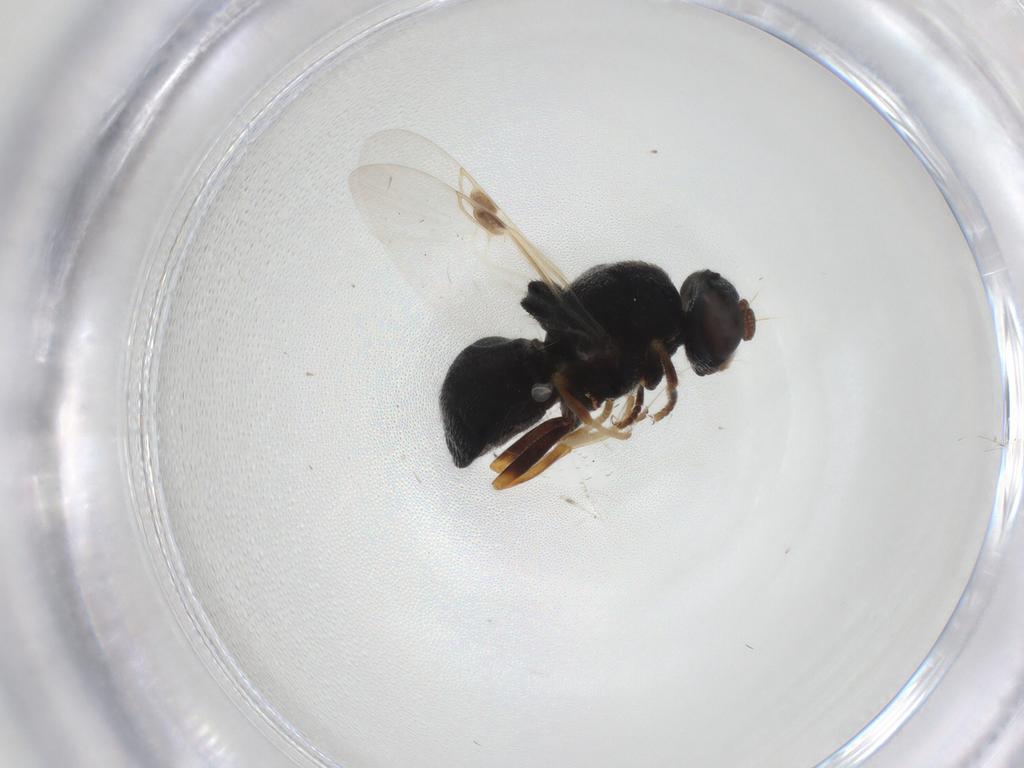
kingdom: Animalia
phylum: Arthropoda
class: Insecta
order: Diptera
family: Stratiomyidae
